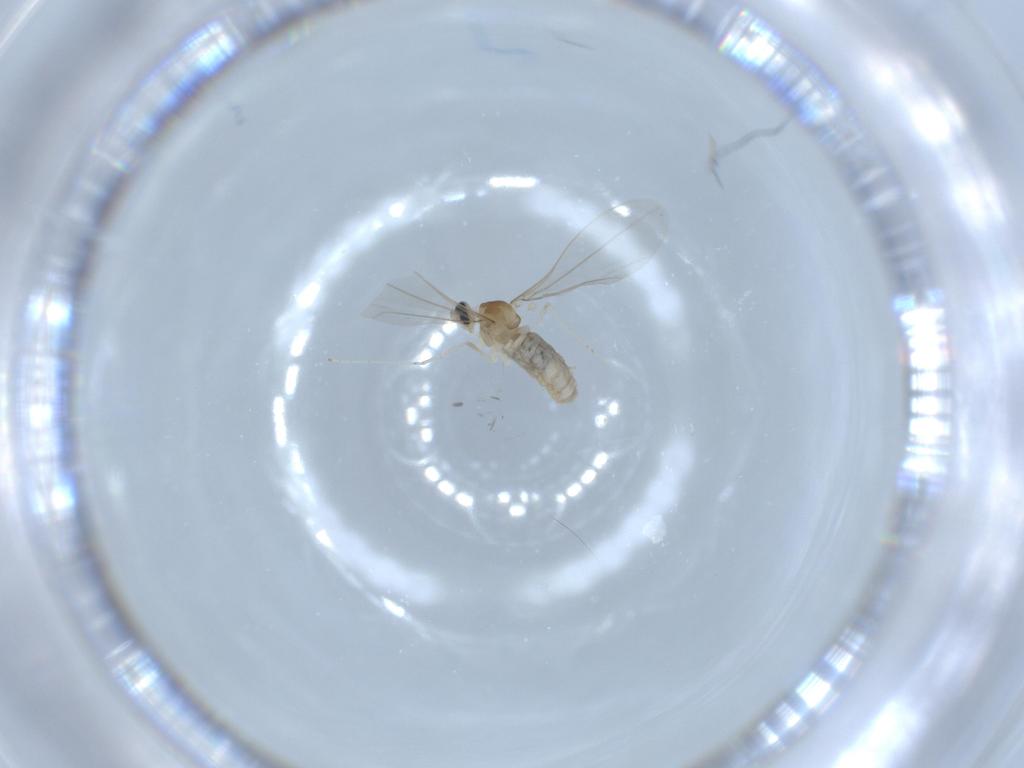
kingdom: Animalia
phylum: Arthropoda
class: Insecta
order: Diptera
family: Cecidomyiidae
